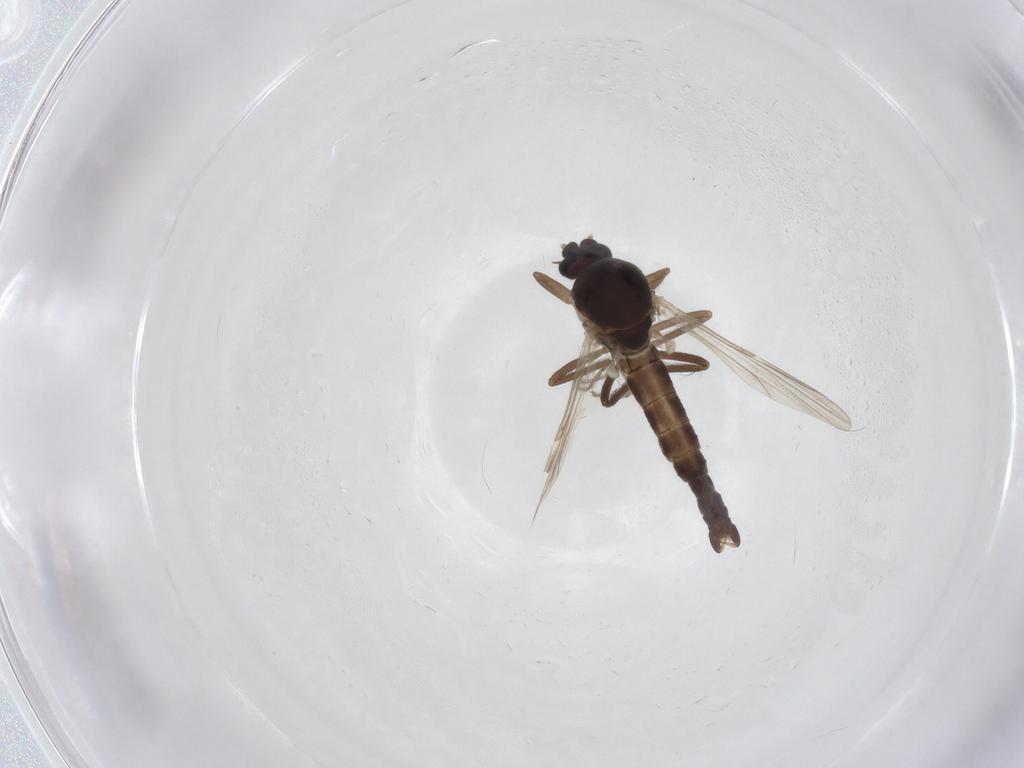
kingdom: Animalia
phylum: Arthropoda
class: Insecta
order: Diptera
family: Ceratopogonidae
